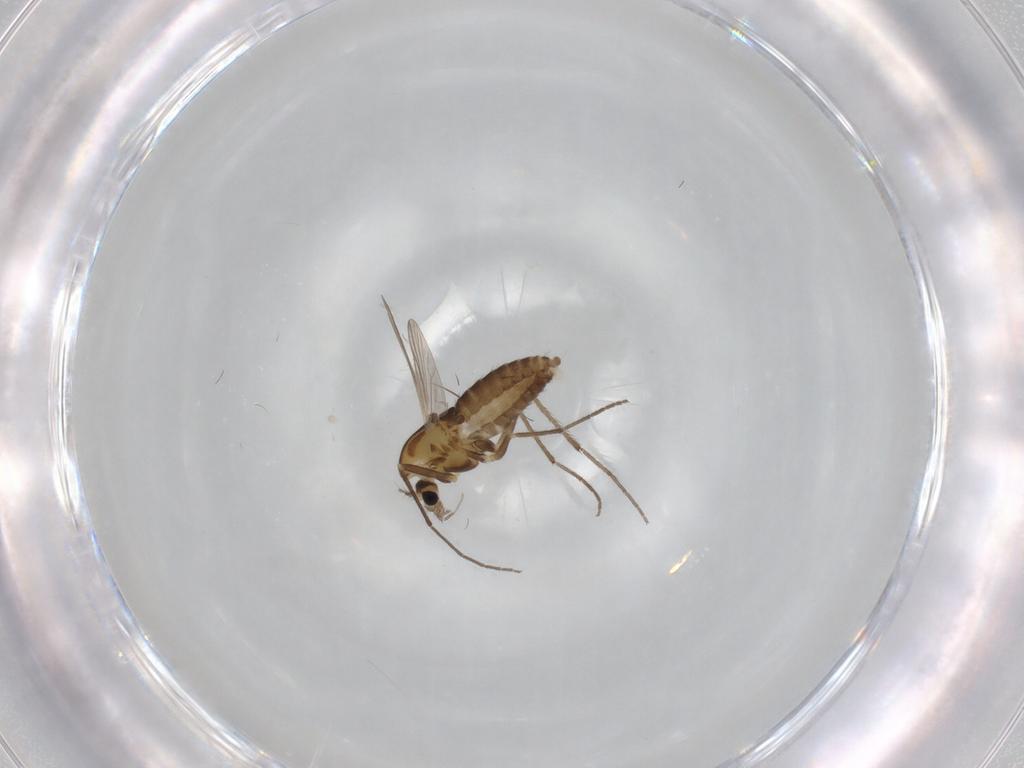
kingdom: Animalia
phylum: Arthropoda
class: Insecta
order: Diptera
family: Chironomidae
